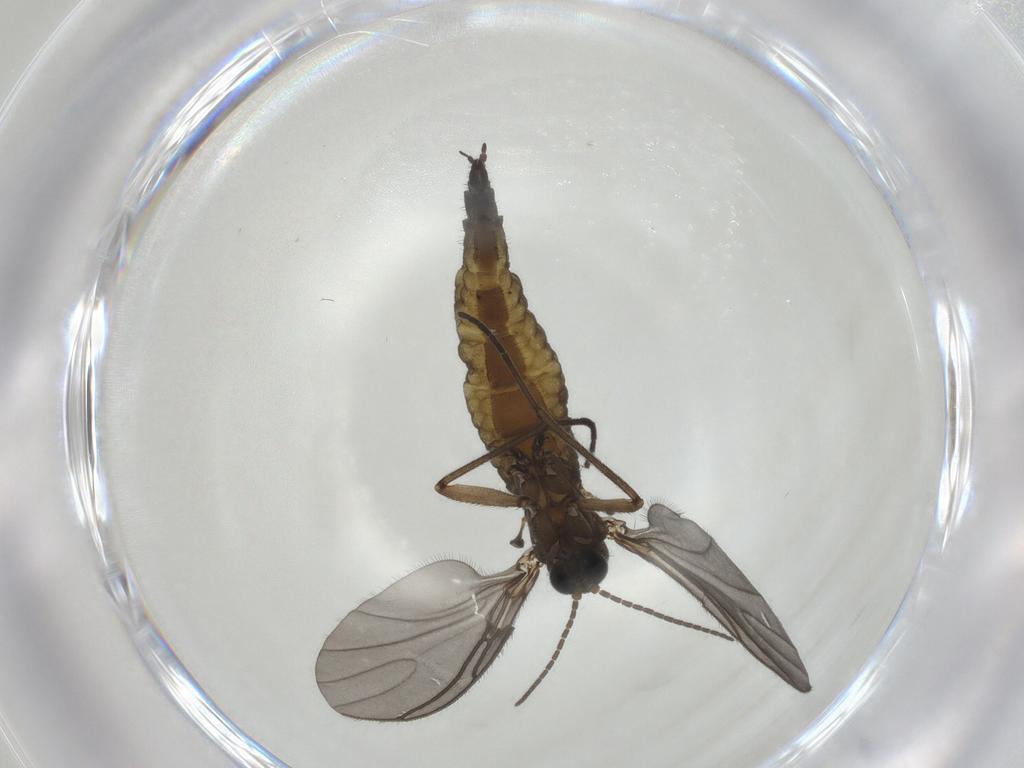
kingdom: Animalia
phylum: Arthropoda
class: Insecta
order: Diptera
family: Sciaridae
